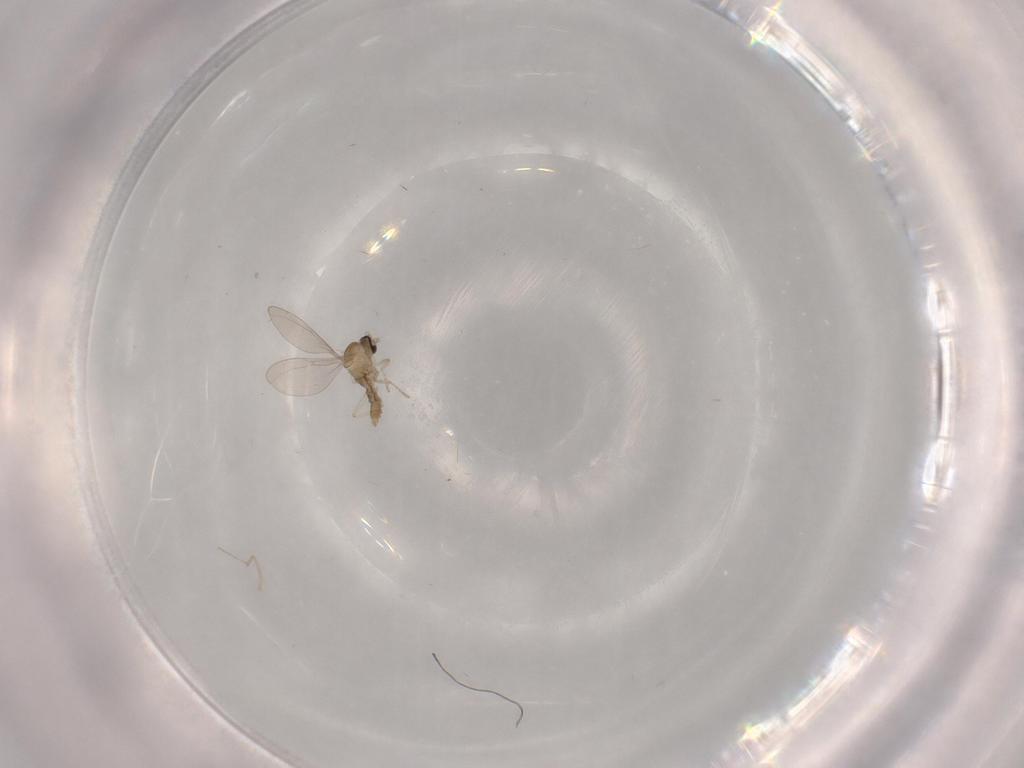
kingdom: Animalia
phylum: Arthropoda
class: Insecta
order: Diptera
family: Cecidomyiidae
